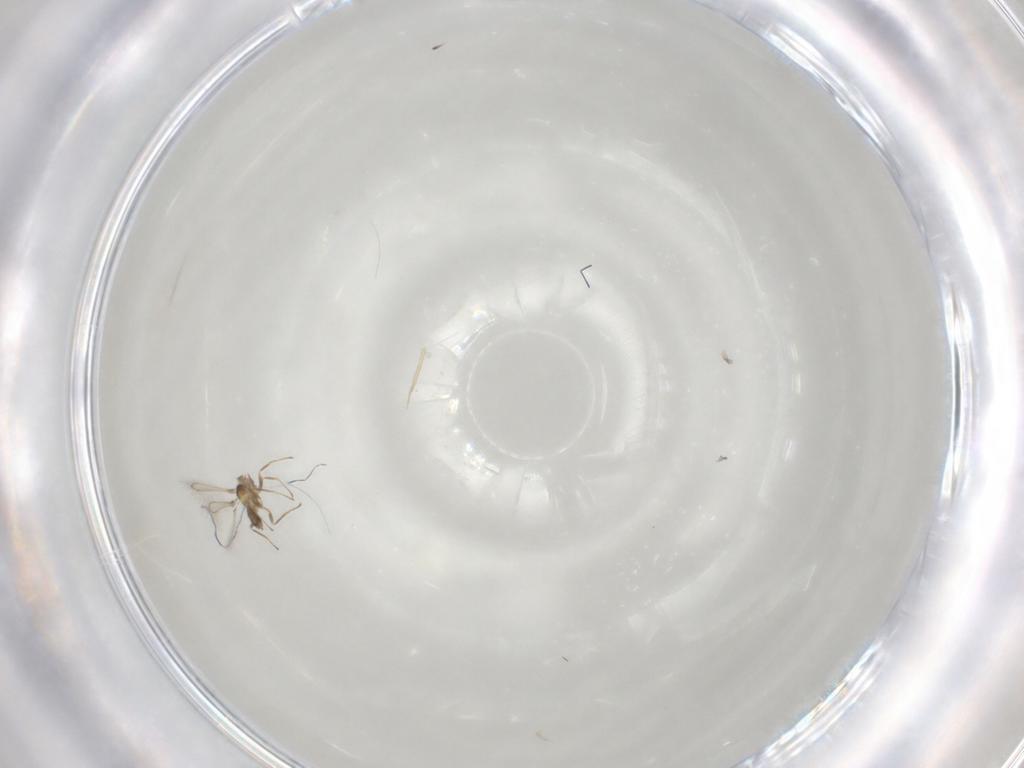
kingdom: Animalia
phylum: Arthropoda
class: Insecta
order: Hymenoptera
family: Mymaridae
